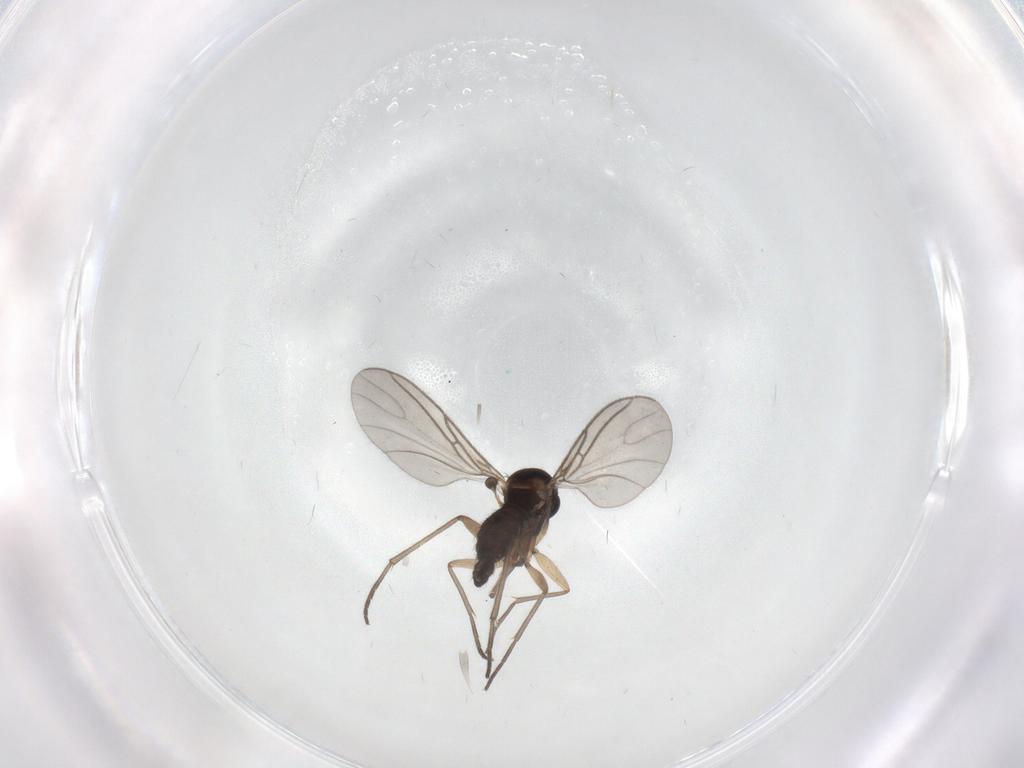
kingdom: Animalia
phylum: Arthropoda
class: Insecta
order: Diptera
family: Sciaridae
